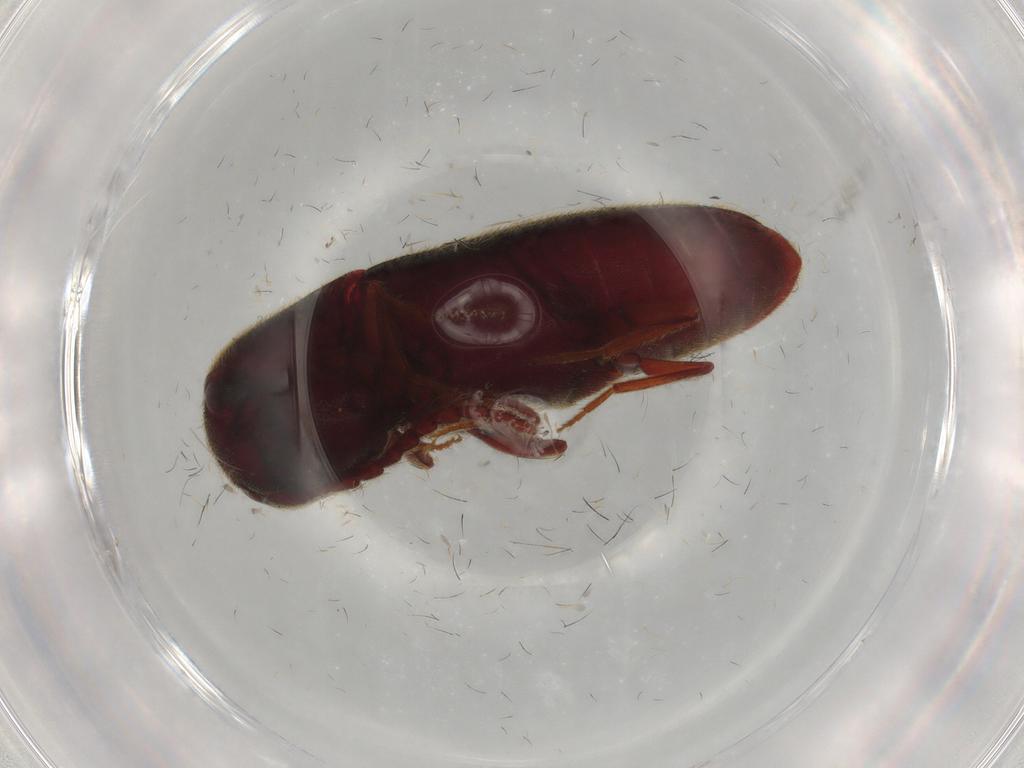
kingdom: Animalia
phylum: Arthropoda
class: Insecta
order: Coleoptera
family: Eucnemidae
